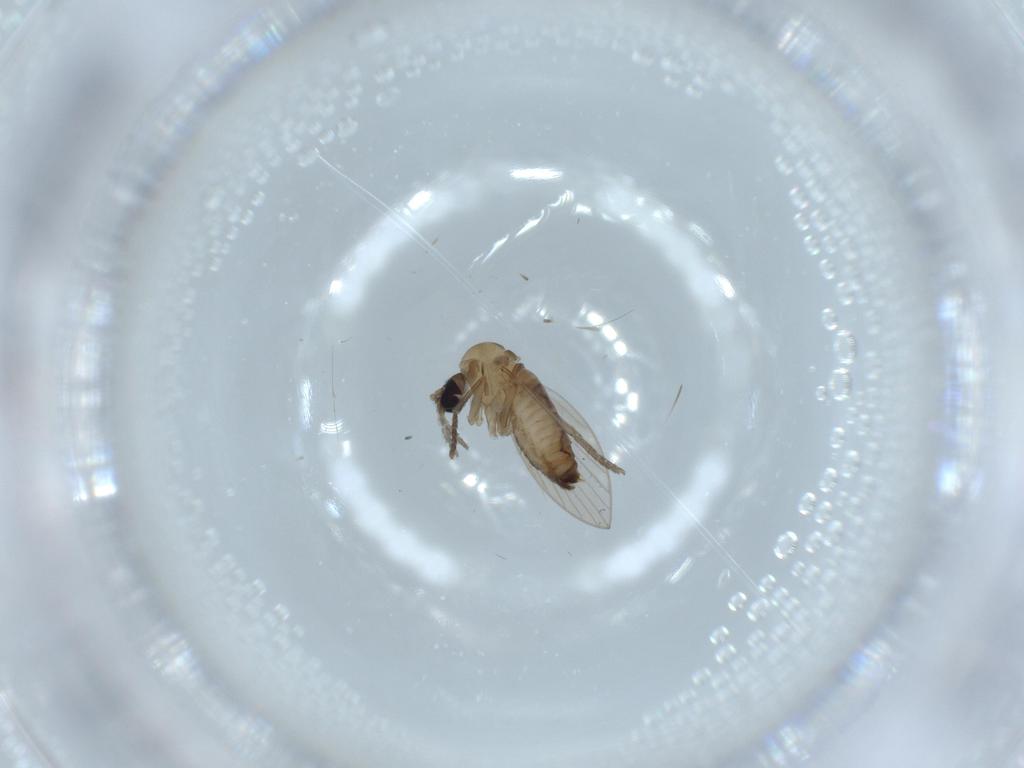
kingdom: Animalia
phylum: Arthropoda
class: Insecta
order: Diptera
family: Psychodidae
